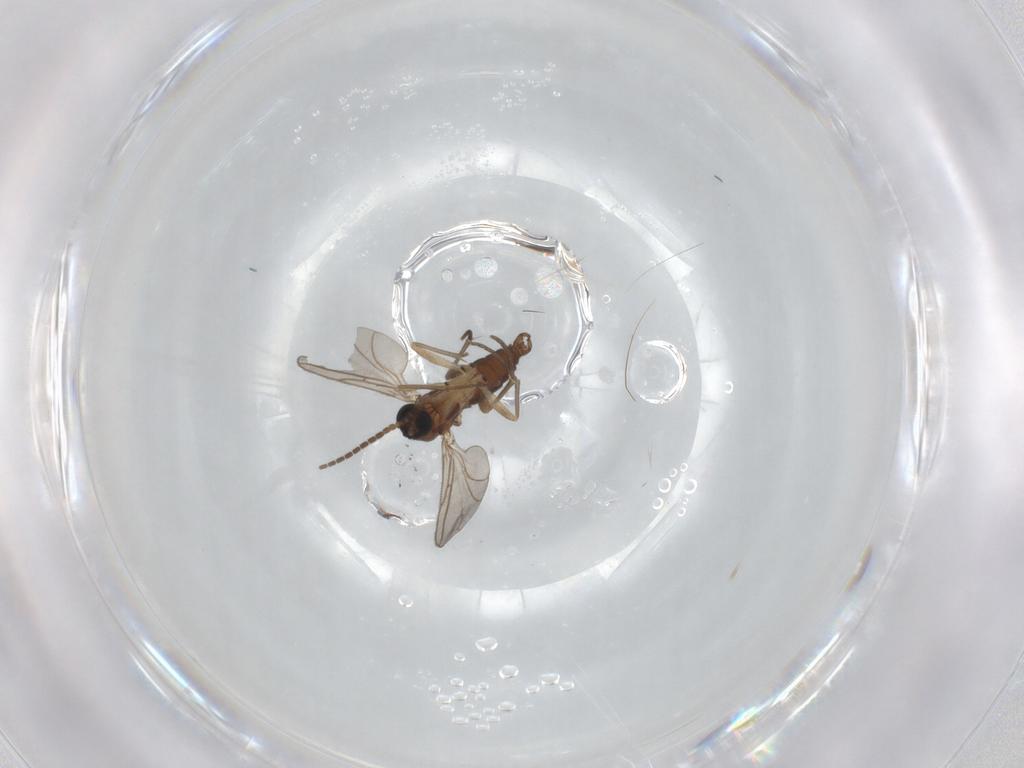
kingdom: Animalia
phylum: Arthropoda
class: Insecta
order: Diptera
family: Sciaridae
